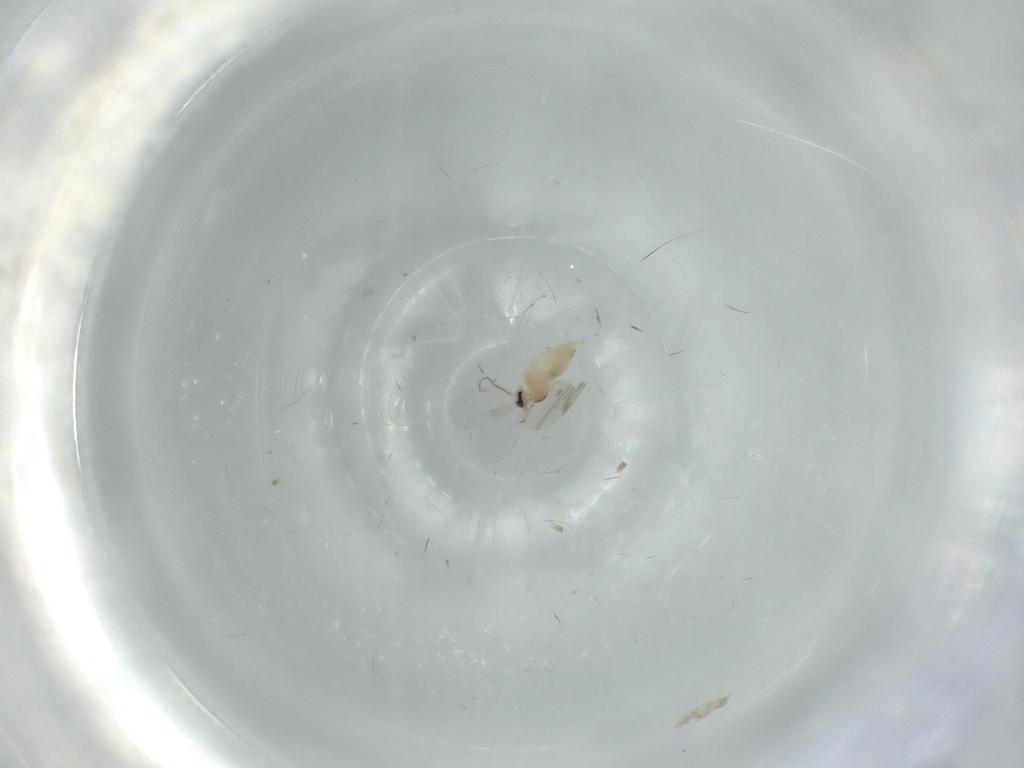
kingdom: Animalia
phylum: Arthropoda
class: Insecta
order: Diptera
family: Cecidomyiidae
